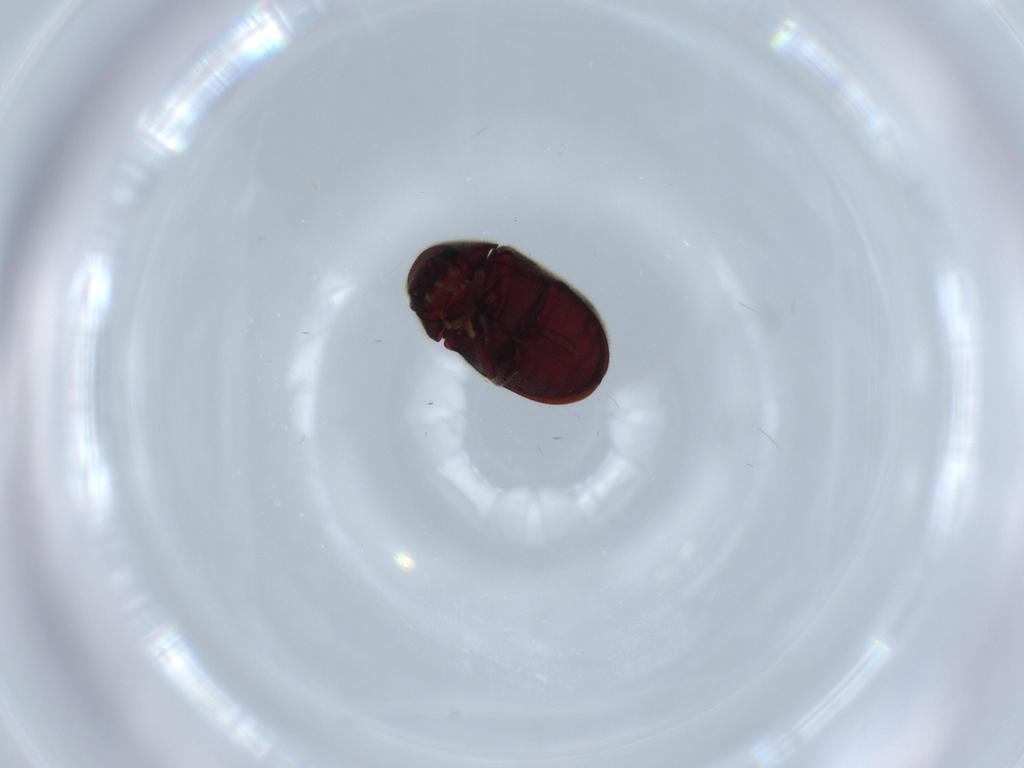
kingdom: Animalia
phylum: Arthropoda
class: Insecta
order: Coleoptera
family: Ptinidae
